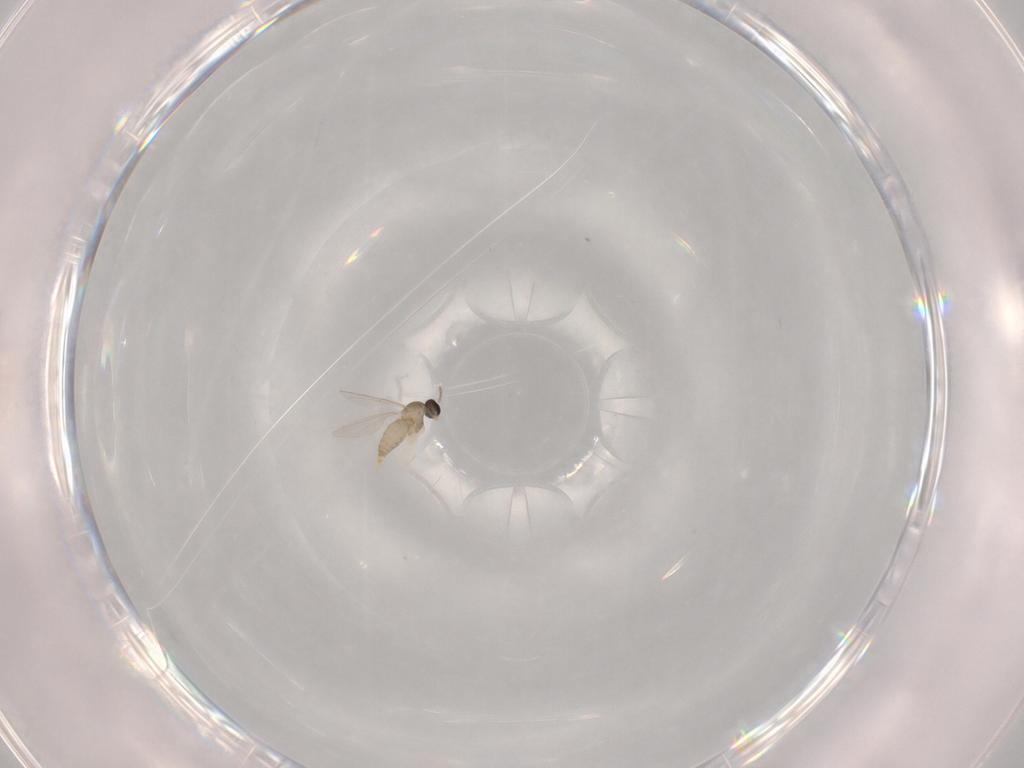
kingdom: Animalia
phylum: Arthropoda
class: Insecta
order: Diptera
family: Cecidomyiidae
